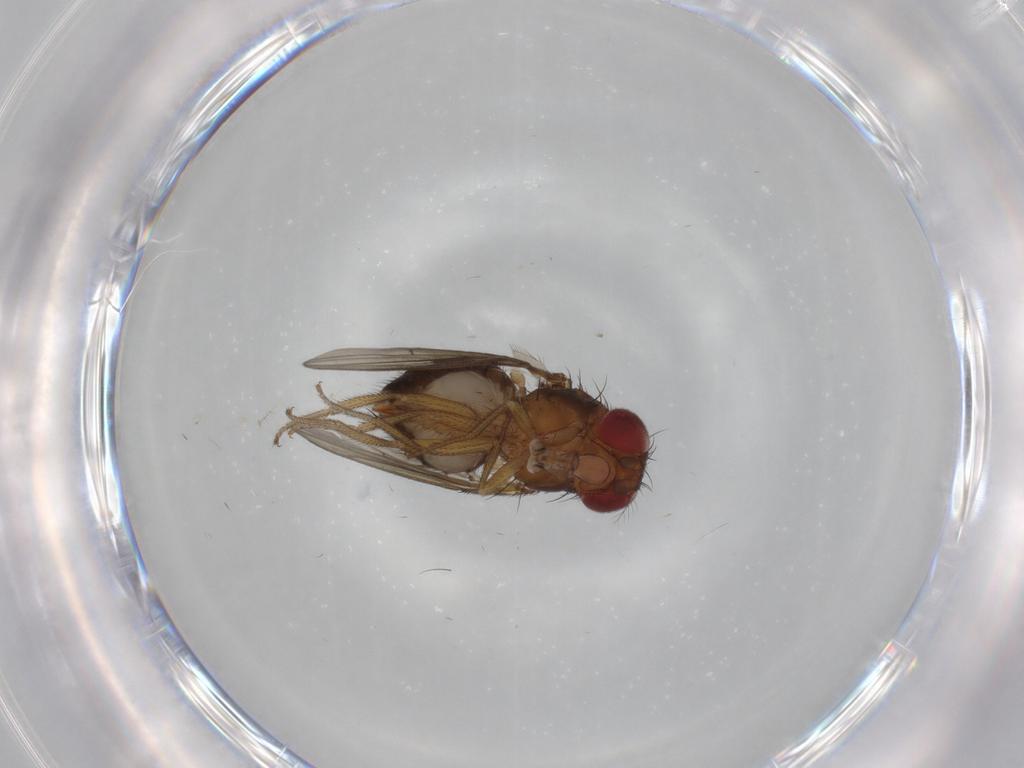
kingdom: Animalia
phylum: Arthropoda
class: Insecta
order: Diptera
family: Drosophilidae
